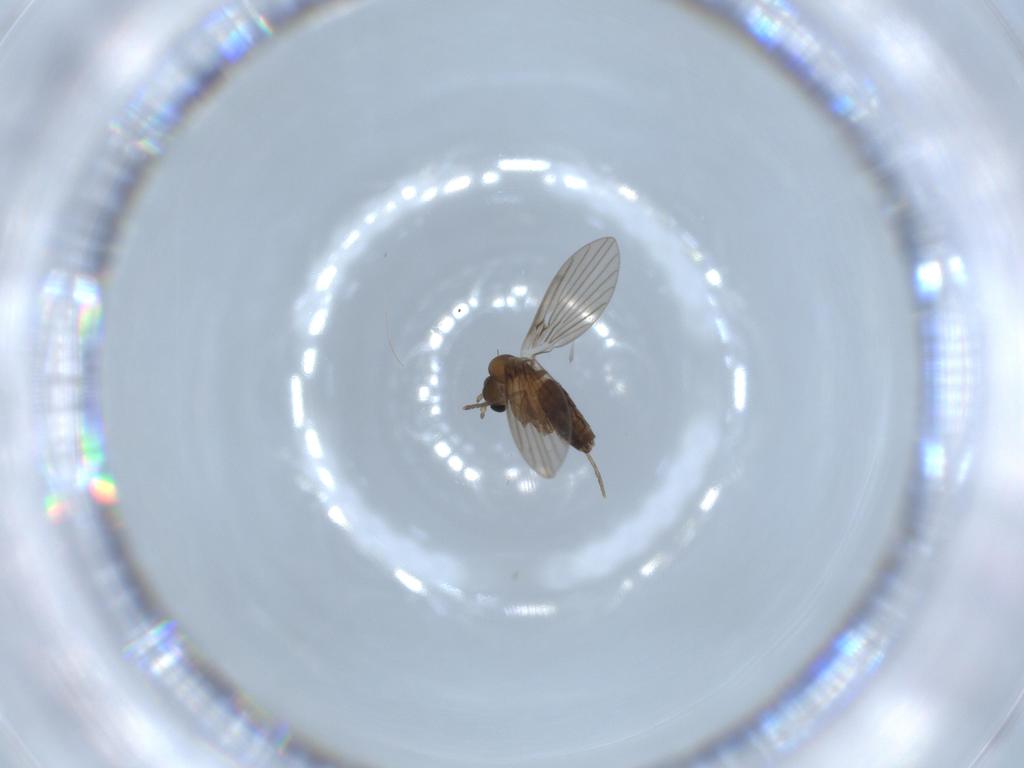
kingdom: Animalia
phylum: Arthropoda
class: Insecta
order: Diptera
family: Psychodidae
